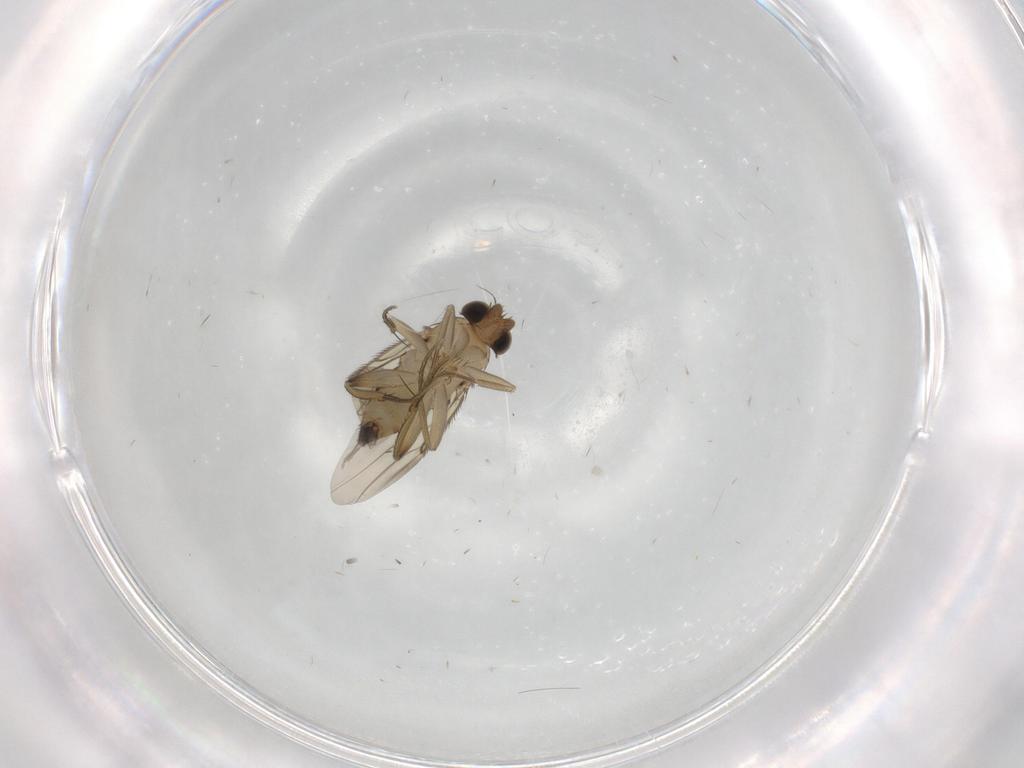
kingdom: Animalia
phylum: Arthropoda
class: Insecta
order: Diptera
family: Phoridae
